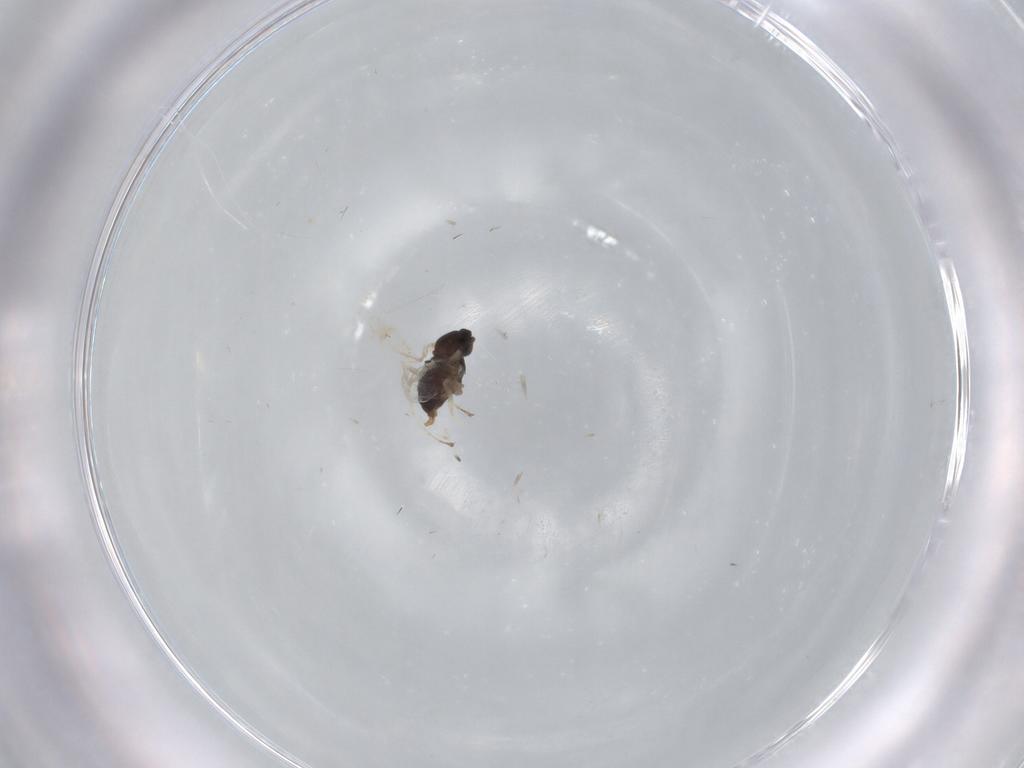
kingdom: Animalia
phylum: Arthropoda
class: Insecta
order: Diptera
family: Cecidomyiidae
